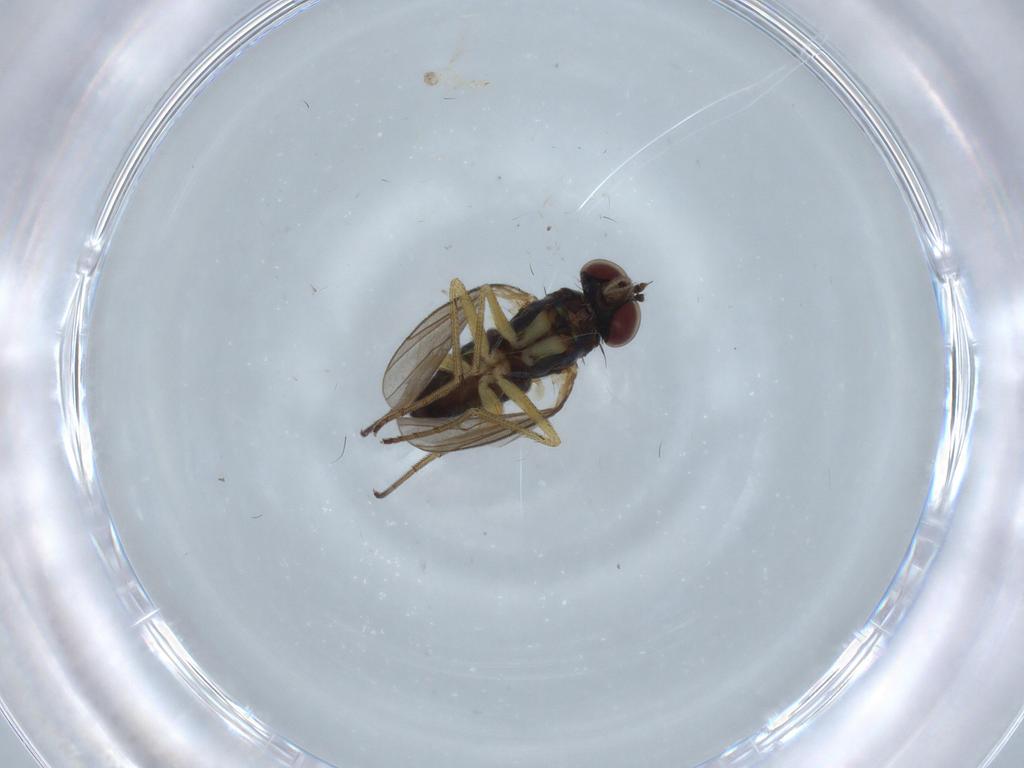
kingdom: Animalia
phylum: Arthropoda
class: Insecta
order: Diptera
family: Dolichopodidae
